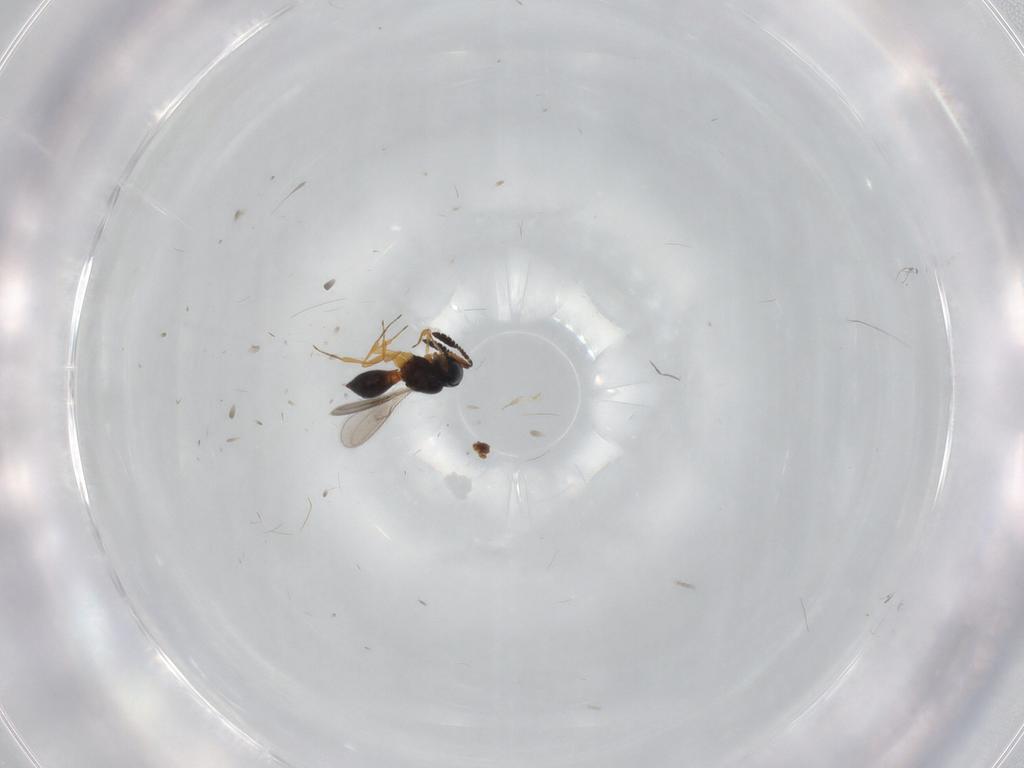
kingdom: Animalia
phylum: Arthropoda
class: Insecta
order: Hymenoptera
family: Scelionidae
